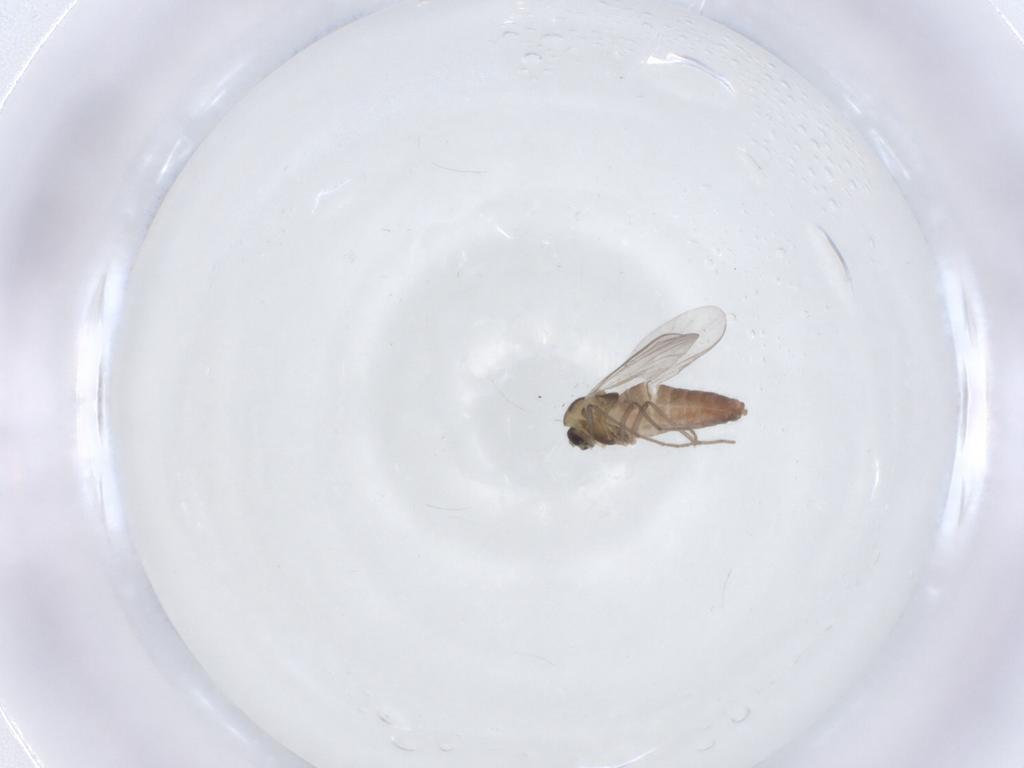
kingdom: Animalia
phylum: Arthropoda
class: Insecta
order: Diptera
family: Chironomidae
